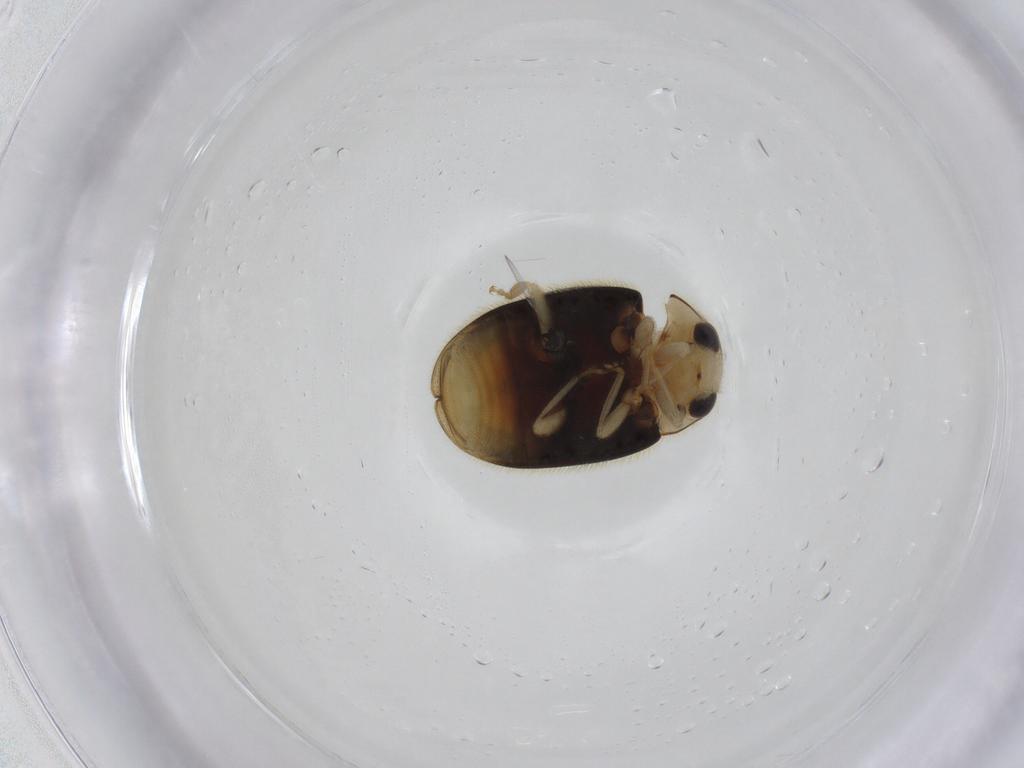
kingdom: Animalia
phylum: Arthropoda
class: Insecta
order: Coleoptera
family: Coccinellidae
